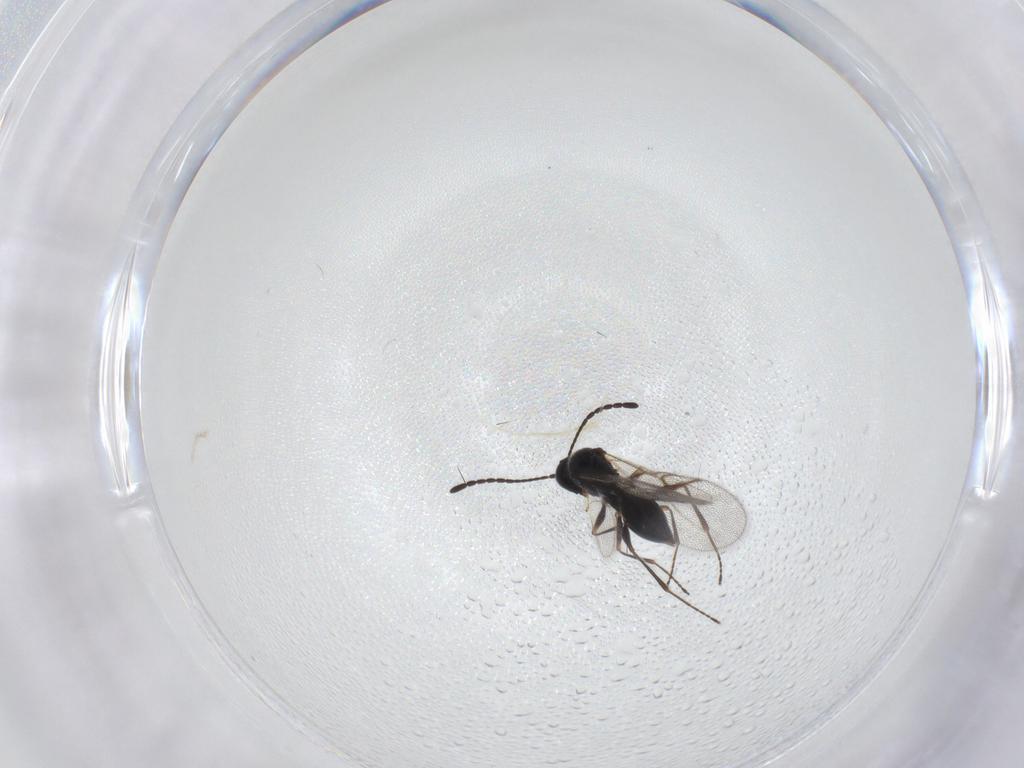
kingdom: Animalia
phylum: Arthropoda
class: Insecta
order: Hymenoptera
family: Figitidae
